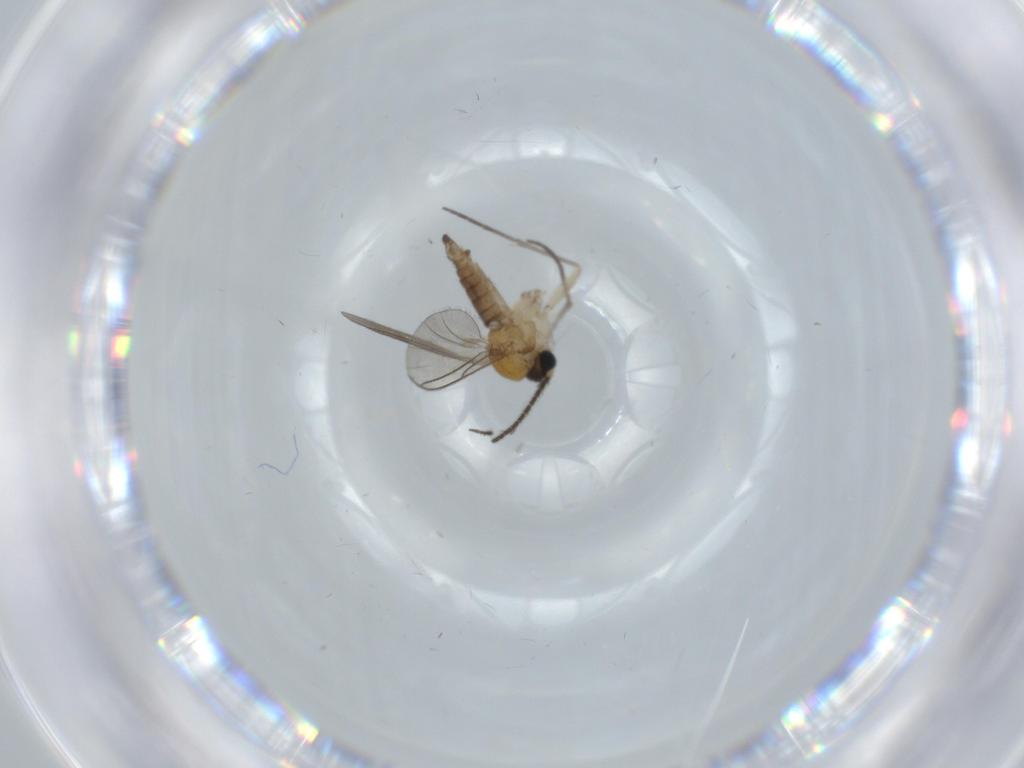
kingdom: Animalia
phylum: Arthropoda
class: Insecta
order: Diptera
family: Sciaridae
